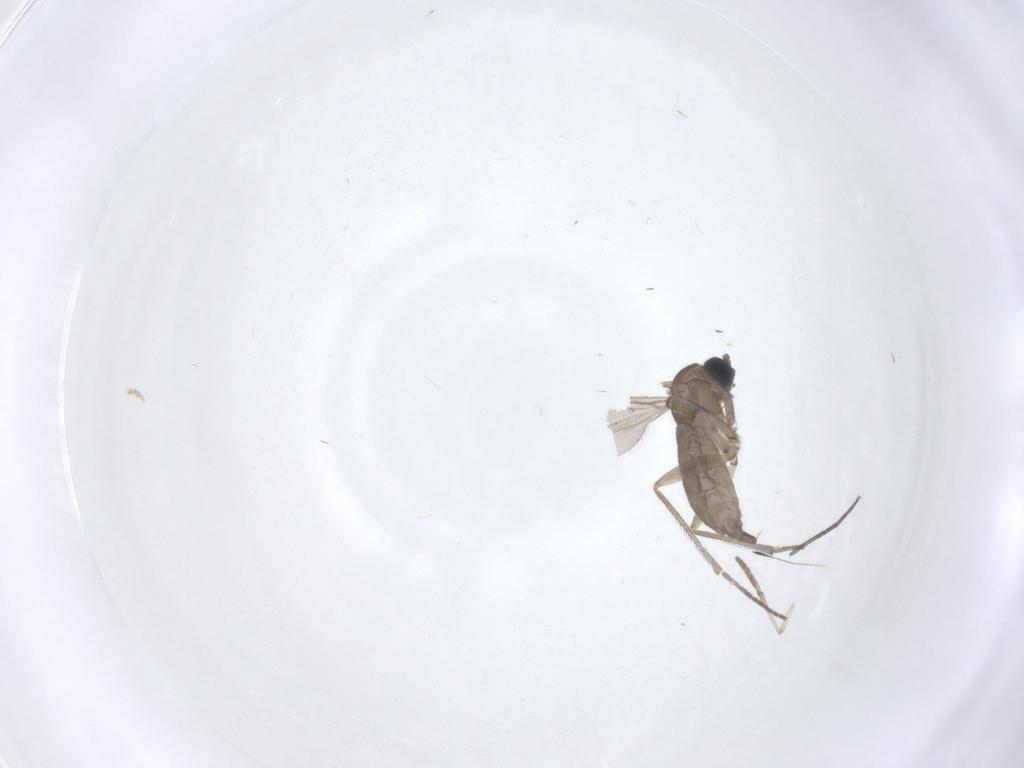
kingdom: Animalia
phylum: Arthropoda
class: Insecta
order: Diptera
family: Sciaridae
